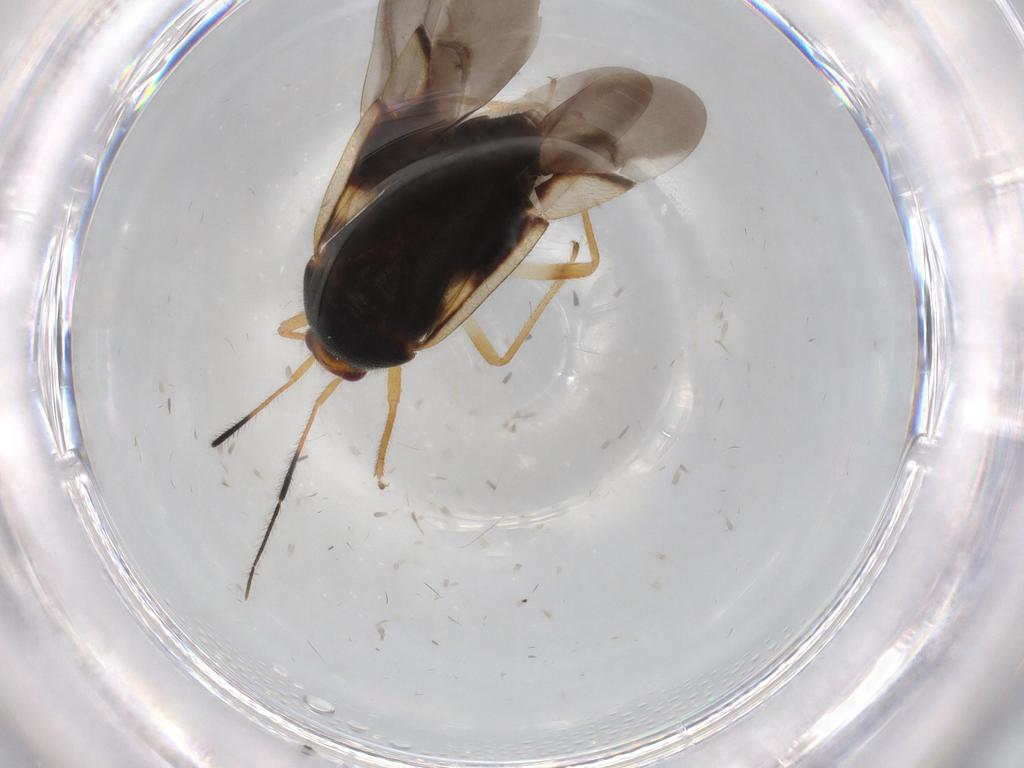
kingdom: Animalia
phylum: Arthropoda
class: Insecta
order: Hemiptera
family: Miridae
